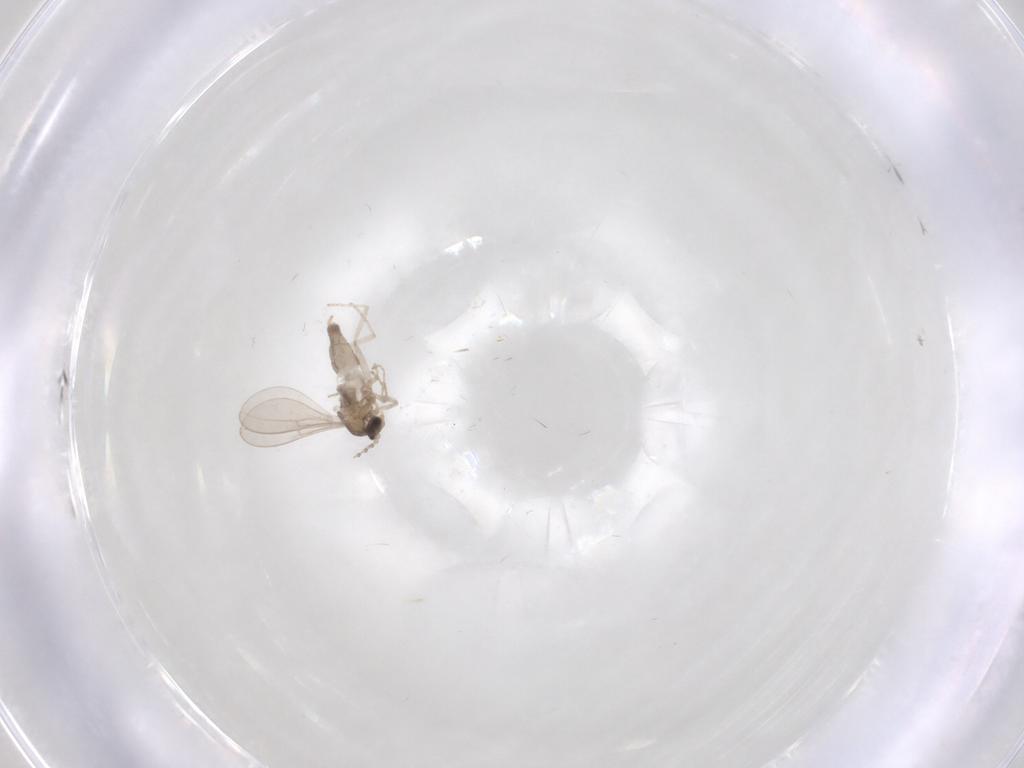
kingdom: Animalia
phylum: Arthropoda
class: Insecta
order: Diptera
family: Cecidomyiidae
